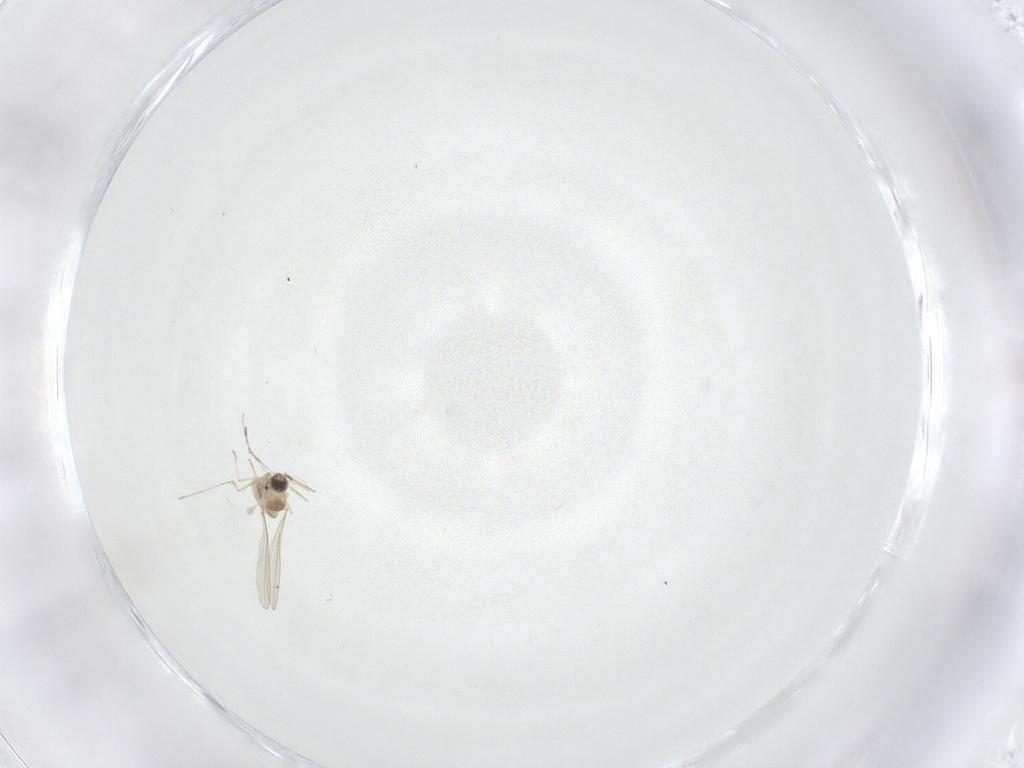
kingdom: Animalia
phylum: Arthropoda
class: Insecta
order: Diptera
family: Cecidomyiidae
